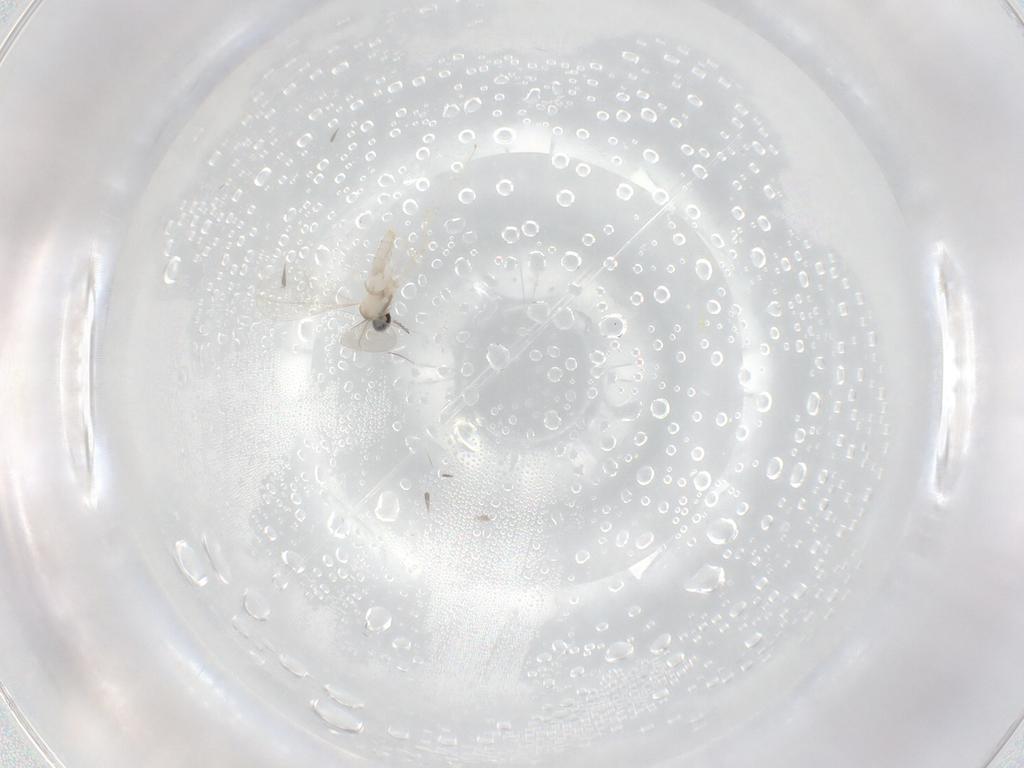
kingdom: Animalia
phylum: Arthropoda
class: Insecta
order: Diptera
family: Cecidomyiidae
